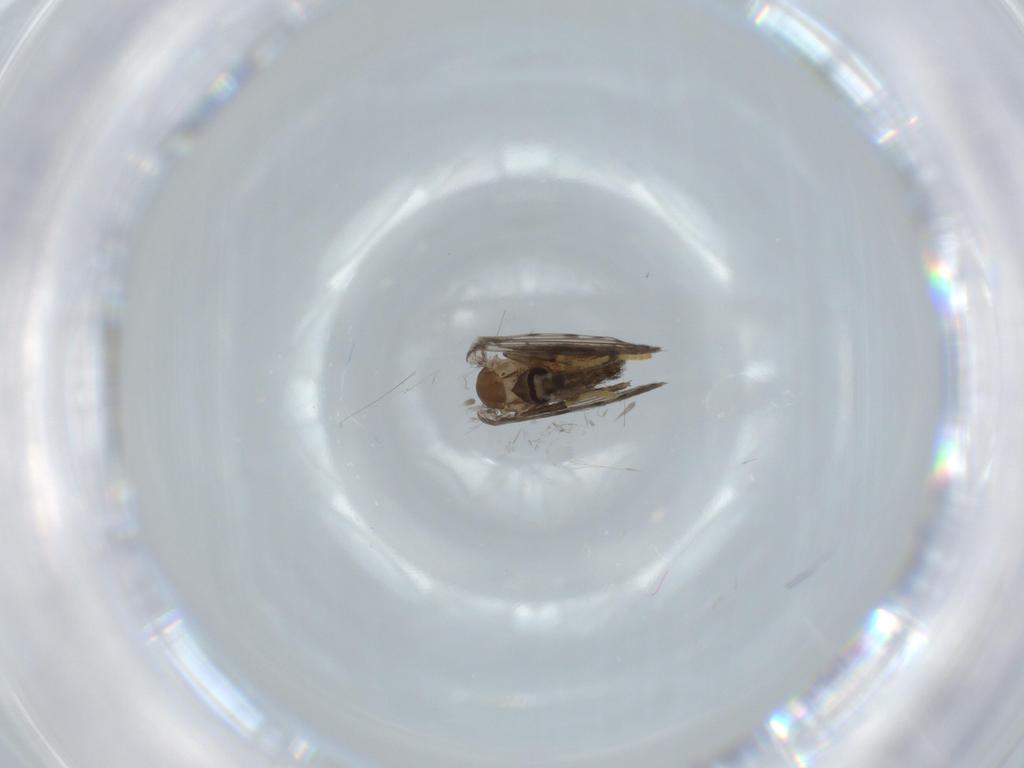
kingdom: Animalia
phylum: Arthropoda
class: Insecta
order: Diptera
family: Psychodidae
